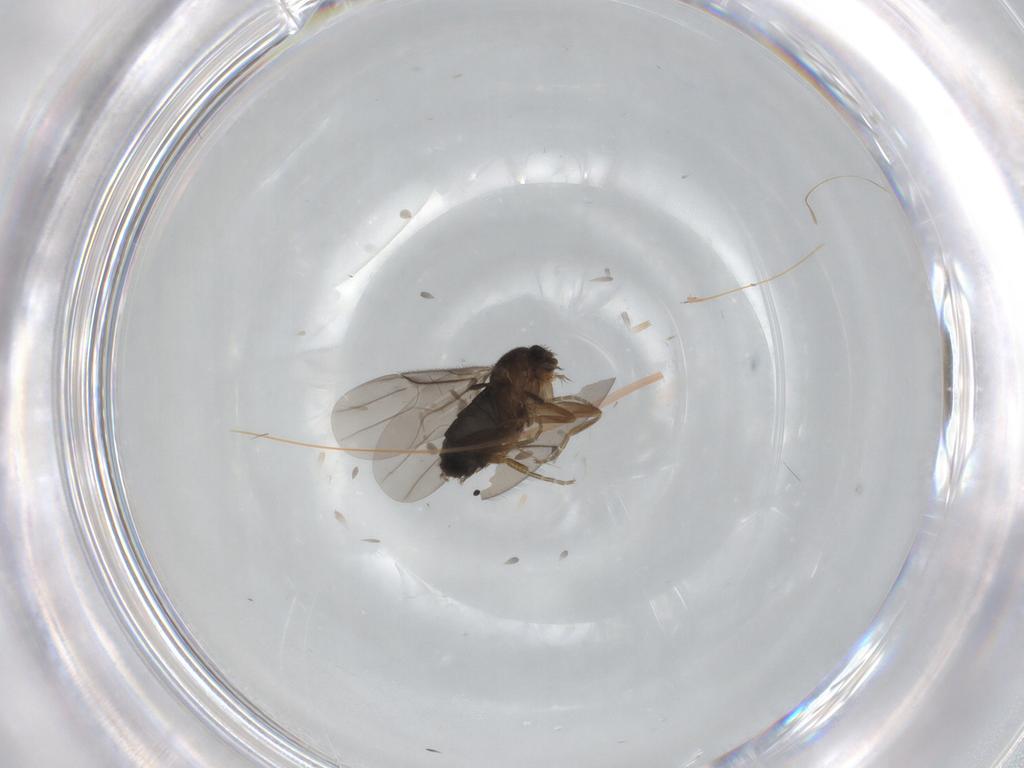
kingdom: Animalia
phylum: Arthropoda
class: Insecta
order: Diptera
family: Phoridae
